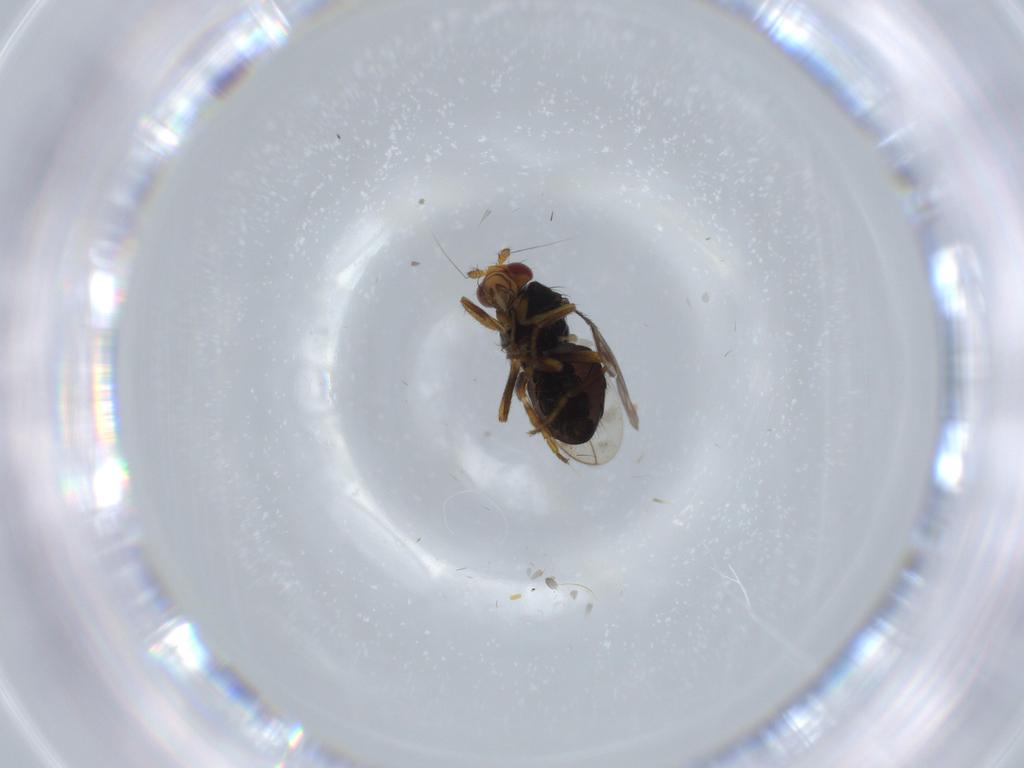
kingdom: Animalia
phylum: Arthropoda
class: Insecta
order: Diptera
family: Sphaeroceridae
